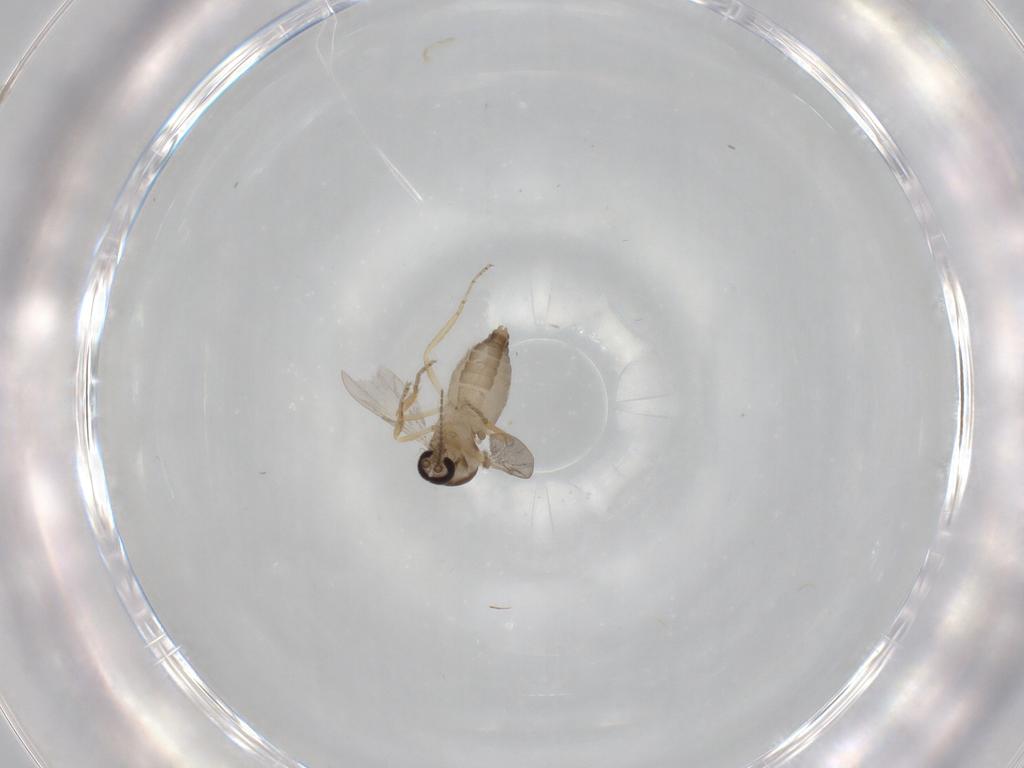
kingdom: Animalia
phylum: Arthropoda
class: Insecta
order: Diptera
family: Ceratopogonidae
